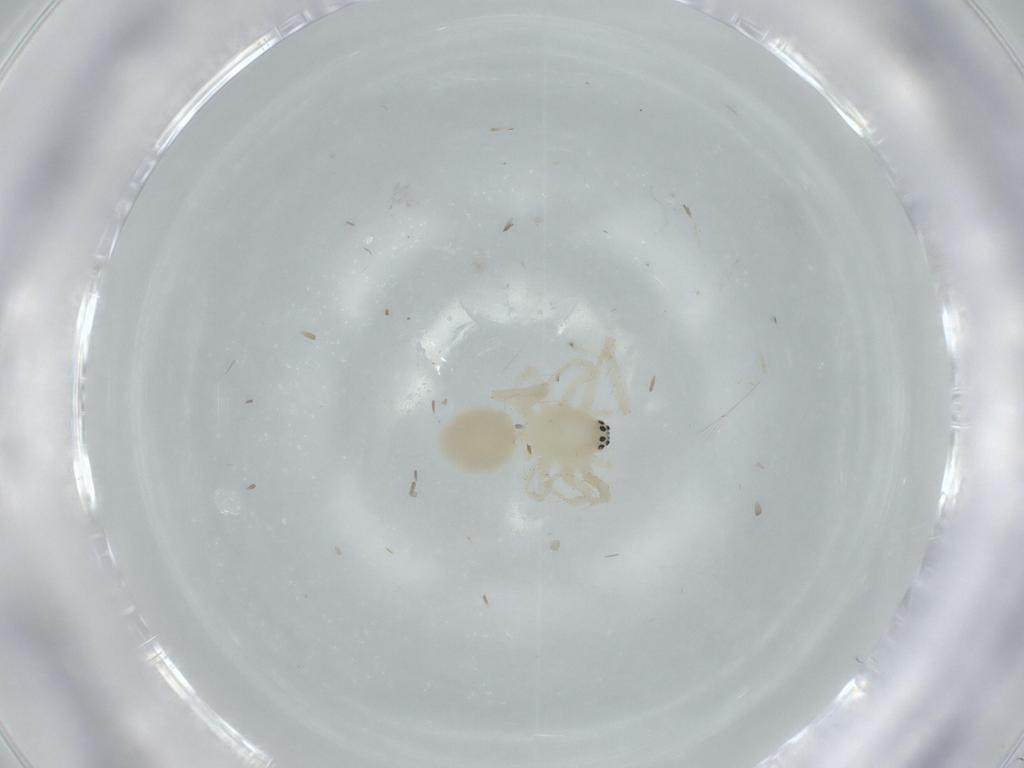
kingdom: Animalia
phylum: Arthropoda
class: Arachnida
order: Araneae
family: Anyphaenidae
